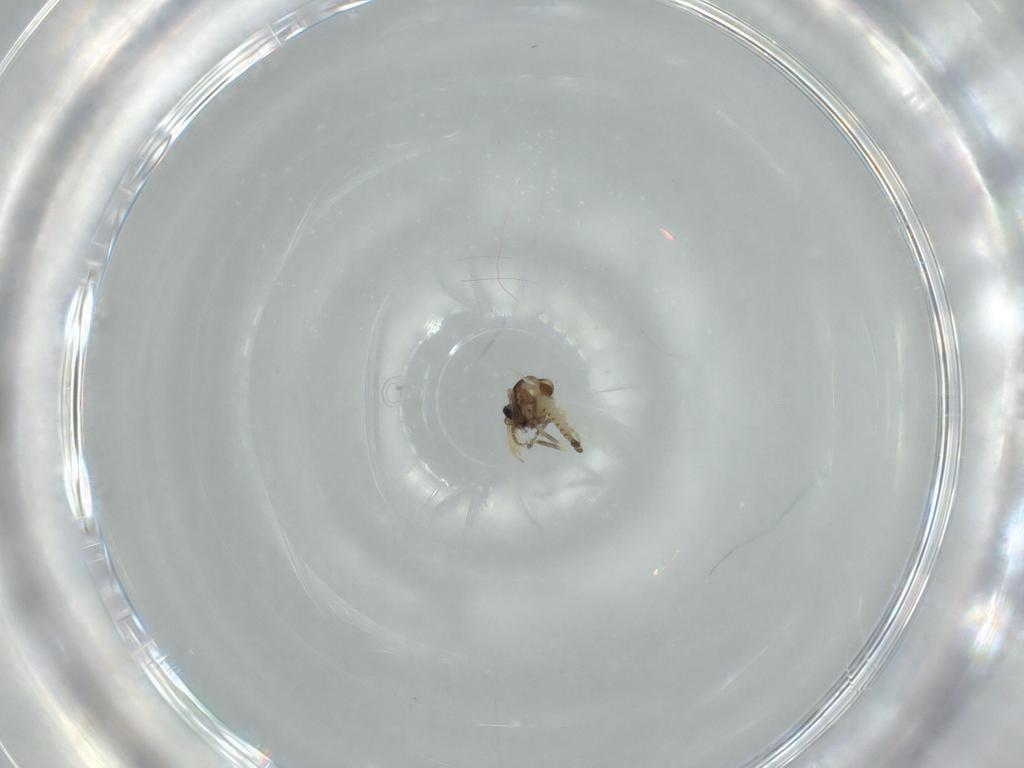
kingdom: Animalia
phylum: Arthropoda
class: Insecta
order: Diptera
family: Ceratopogonidae
